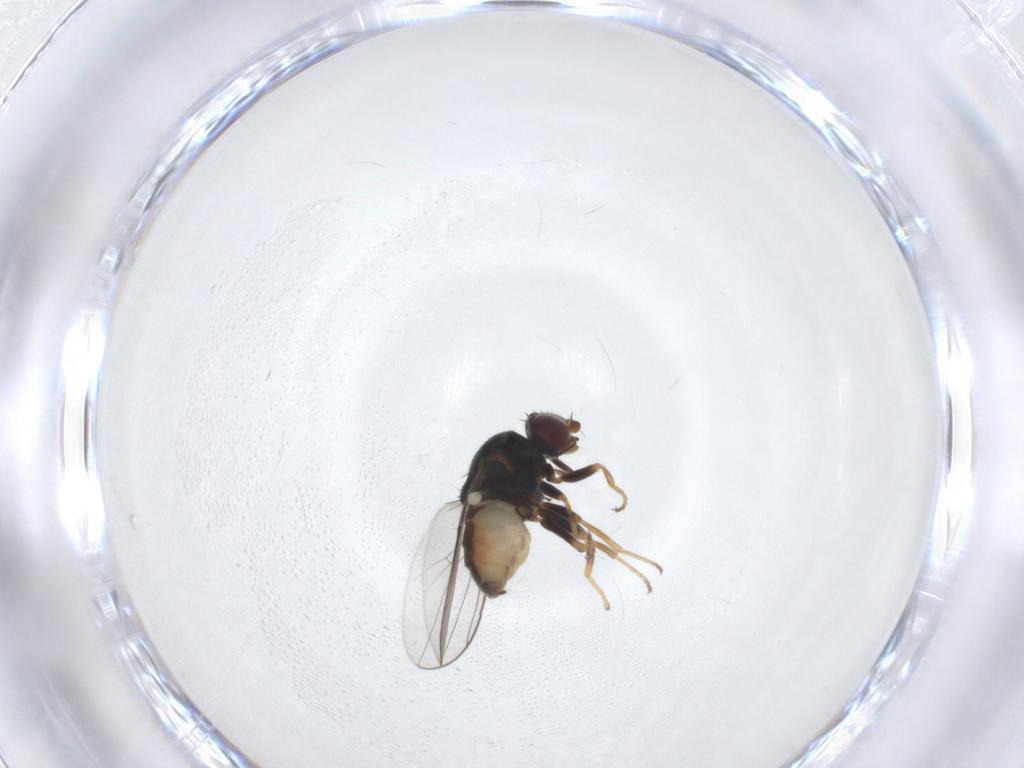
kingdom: Animalia
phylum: Arthropoda
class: Insecta
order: Diptera
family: Chloropidae
